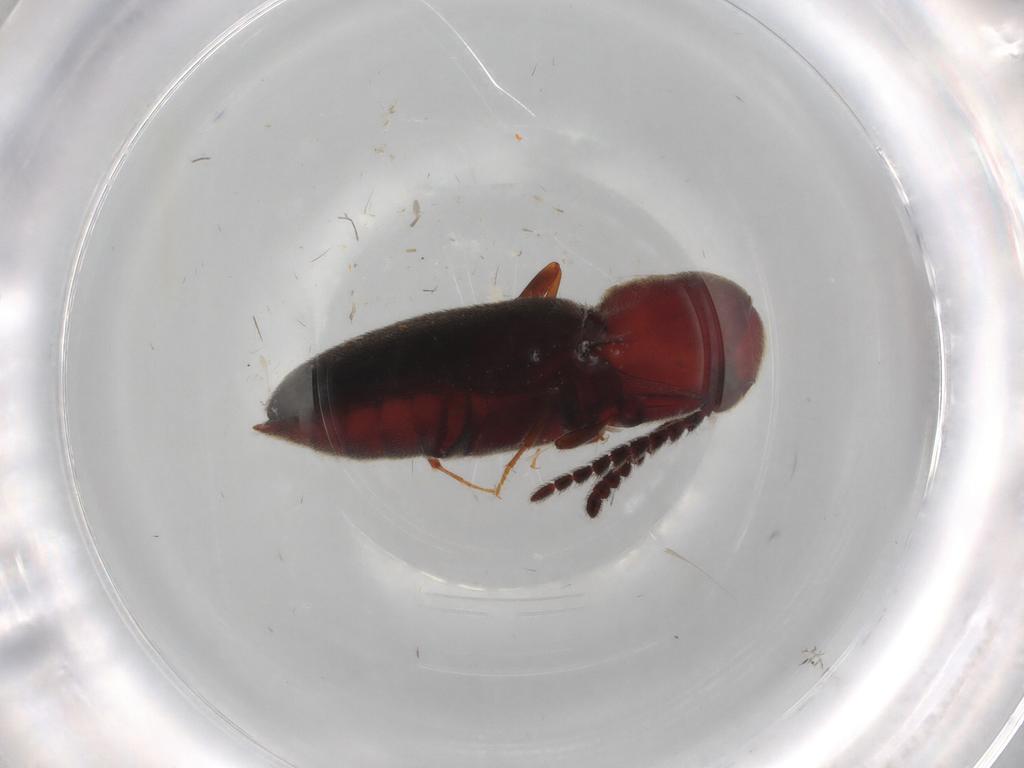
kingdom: Animalia
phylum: Arthropoda
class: Insecta
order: Coleoptera
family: Eucnemidae
